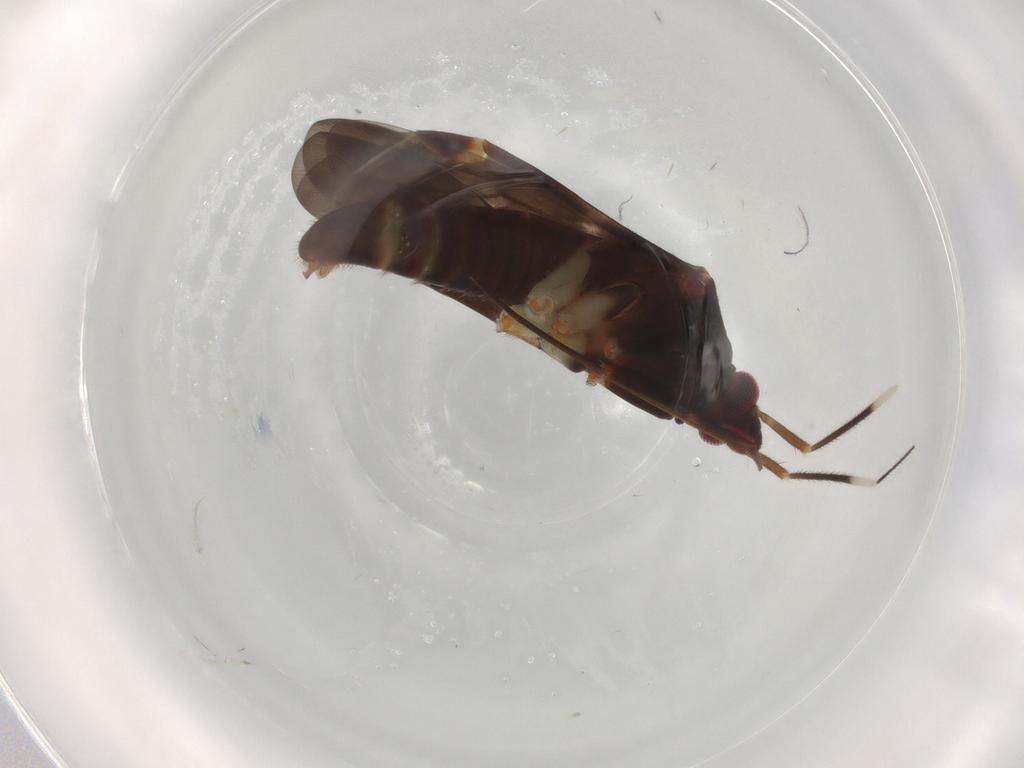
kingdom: Animalia
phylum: Arthropoda
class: Insecta
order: Hemiptera
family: Miridae
